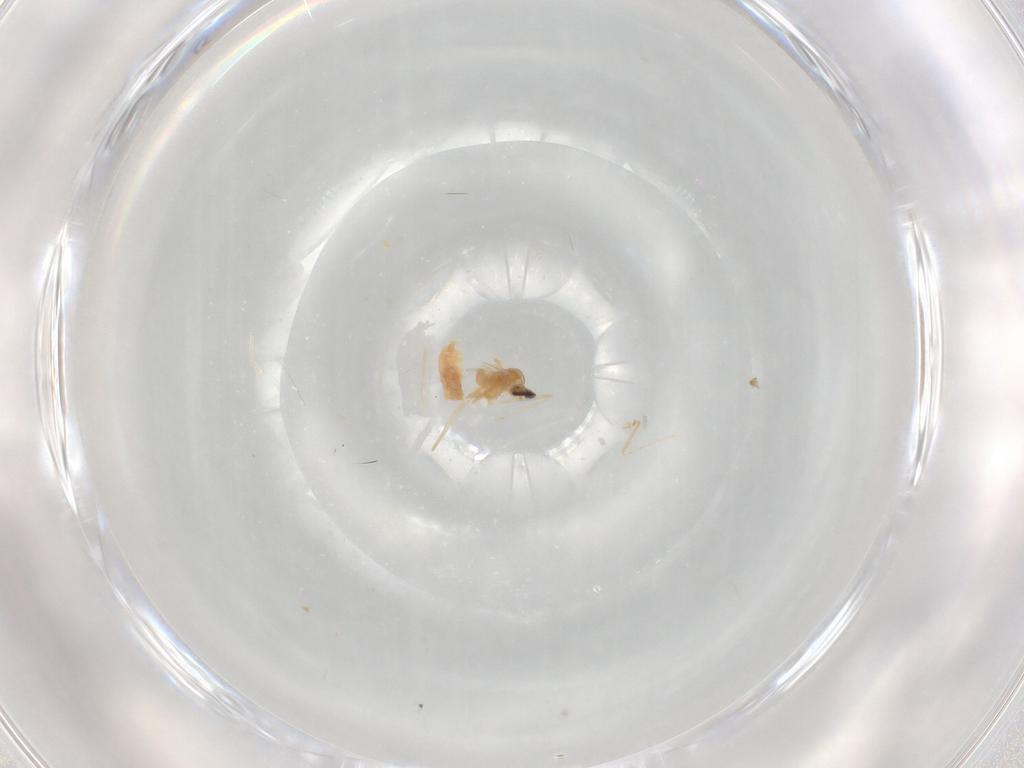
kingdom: Animalia
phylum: Arthropoda
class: Insecta
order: Diptera
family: Cecidomyiidae
